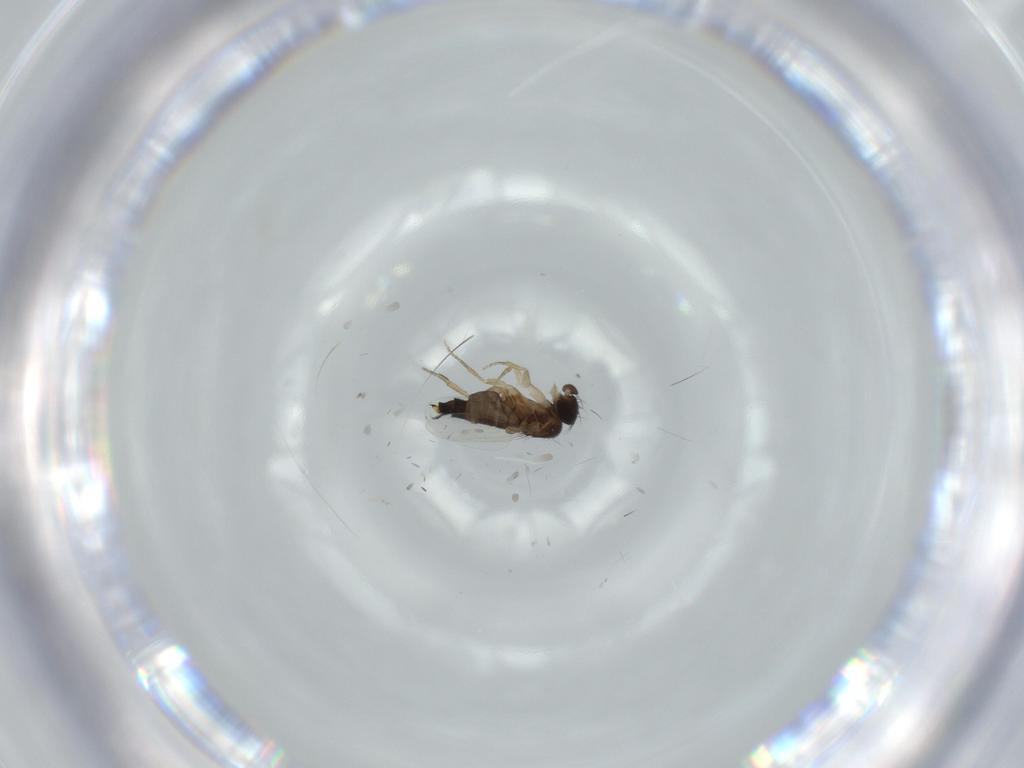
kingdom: Animalia
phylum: Arthropoda
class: Insecta
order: Diptera
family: Phoridae
